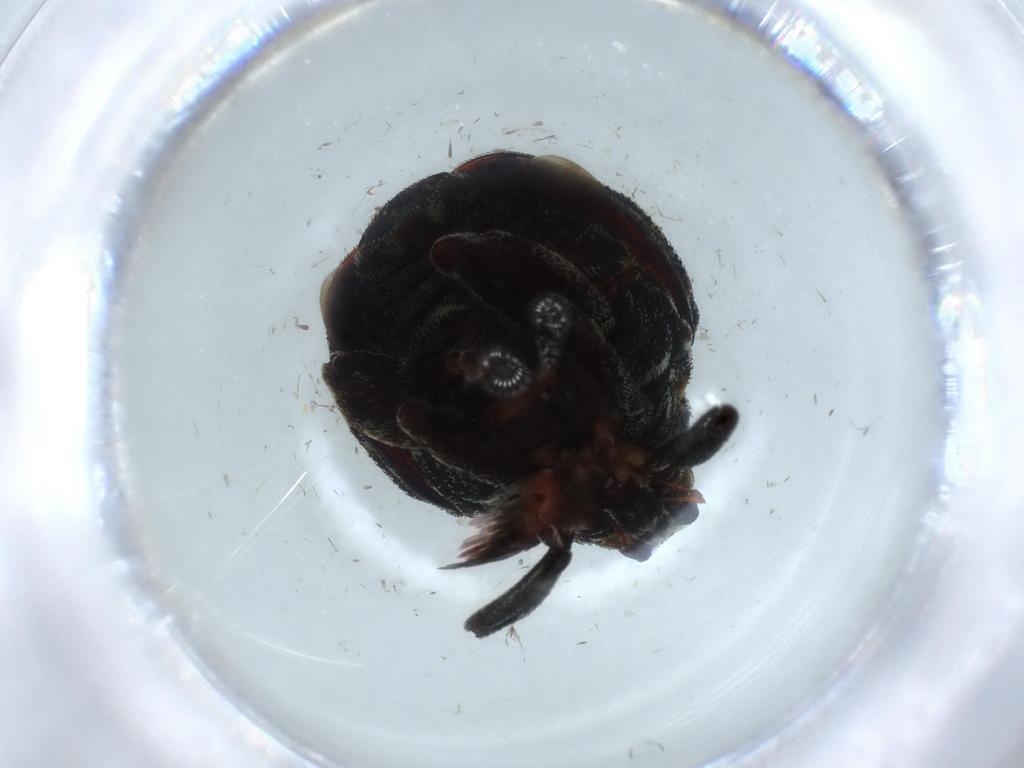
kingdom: Animalia
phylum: Arthropoda
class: Insecta
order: Coleoptera
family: Curculionidae
